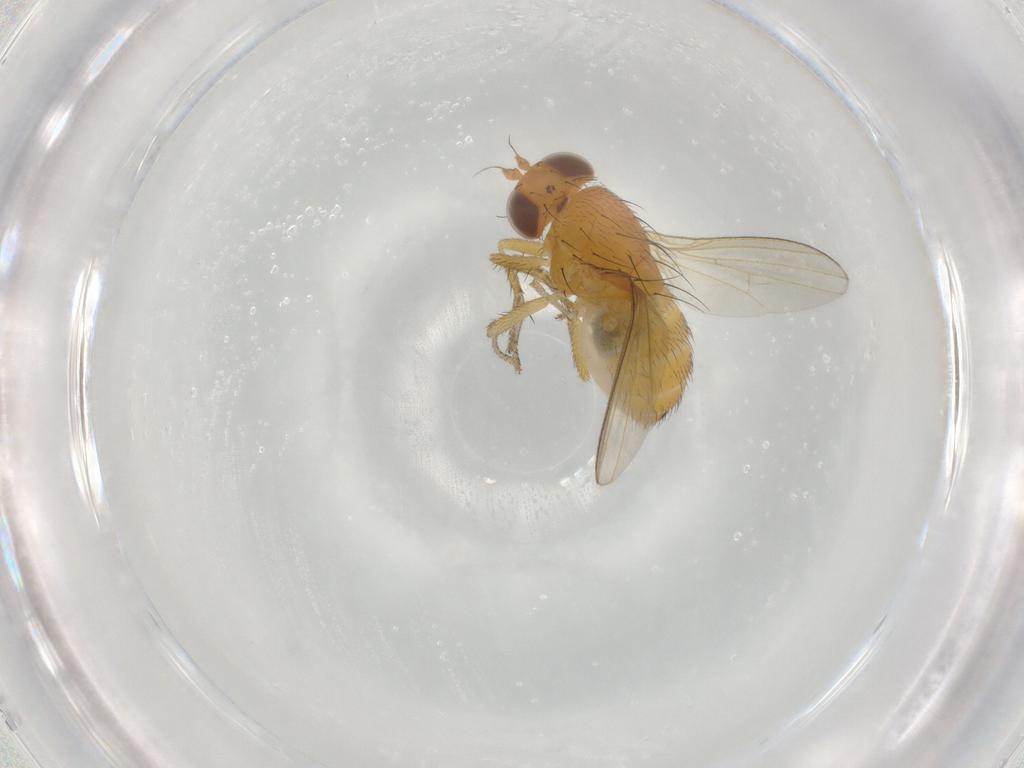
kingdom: Animalia
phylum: Arthropoda
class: Insecta
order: Diptera
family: Lauxaniidae
